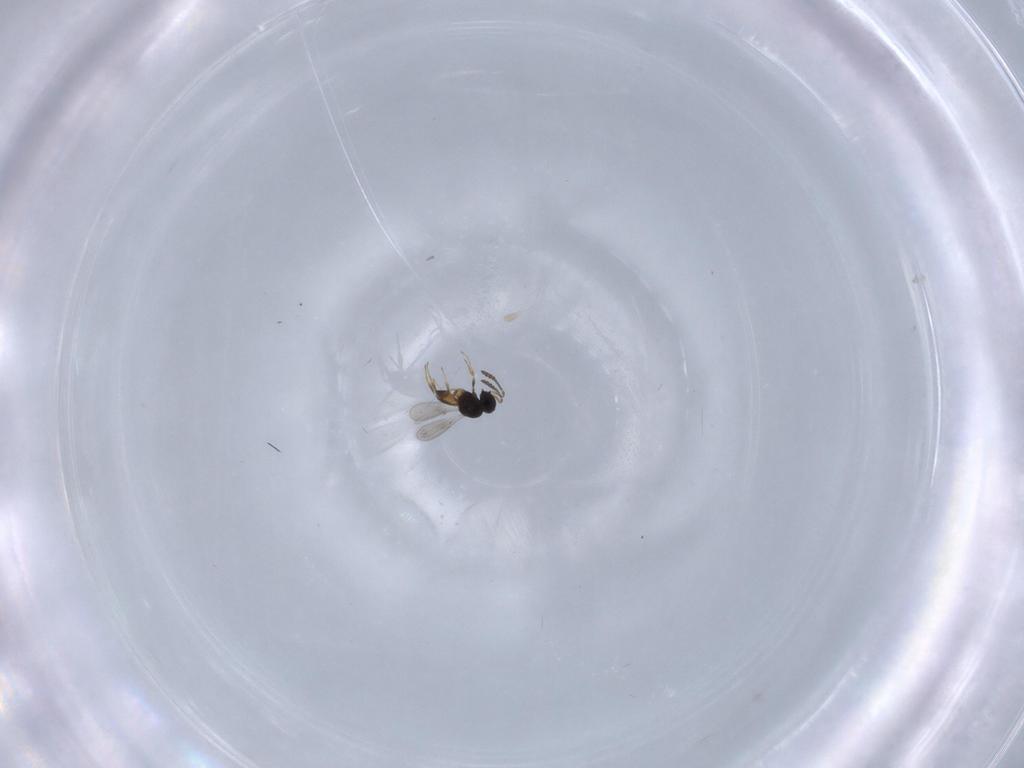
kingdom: Animalia
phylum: Arthropoda
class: Insecta
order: Hymenoptera
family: Scelionidae
